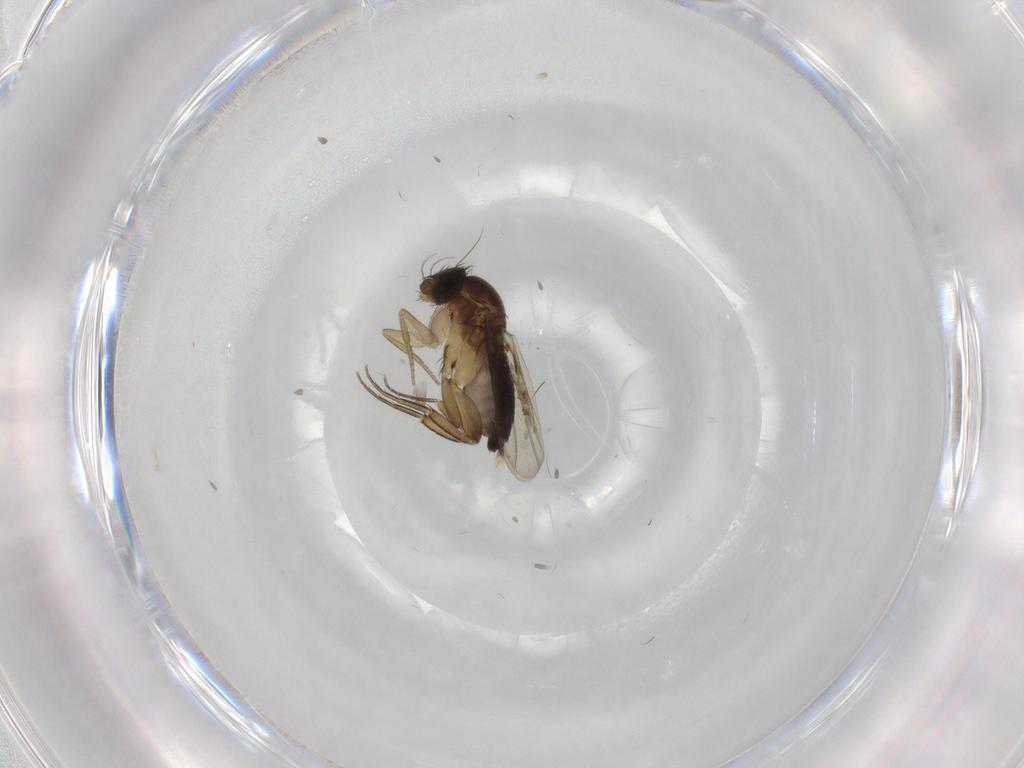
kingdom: Animalia
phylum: Arthropoda
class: Insecta
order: Diptera
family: Phoridae
